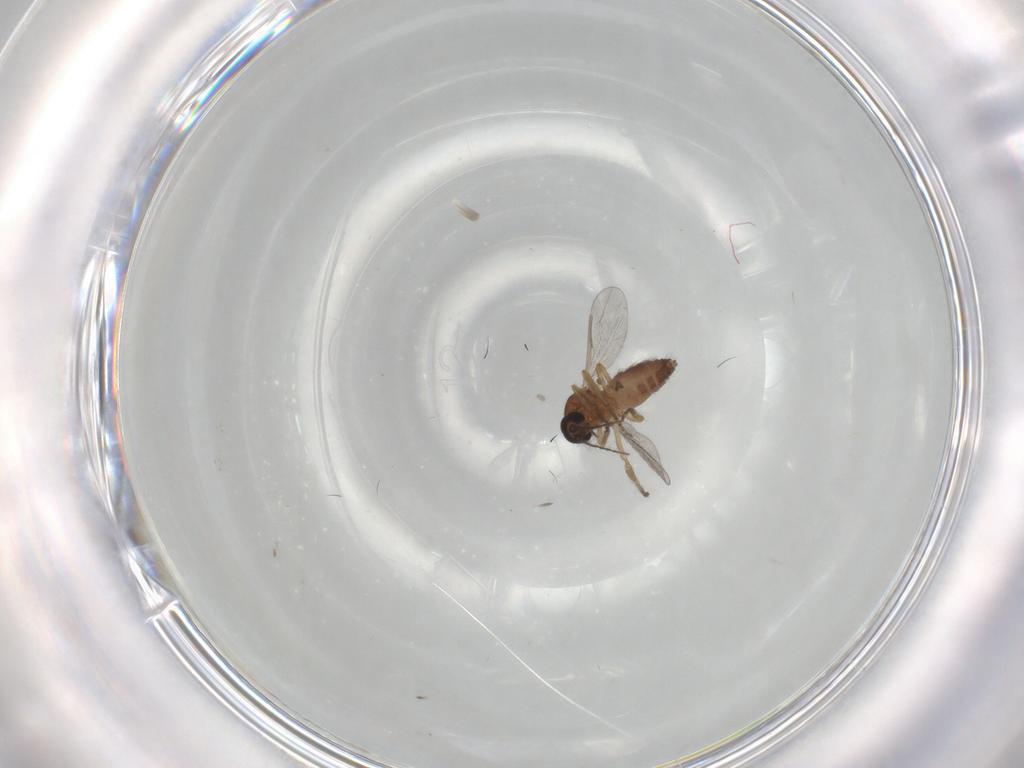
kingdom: Animalia
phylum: Arthropoda
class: Insecta
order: Diptera
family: Ceratopogonidae
